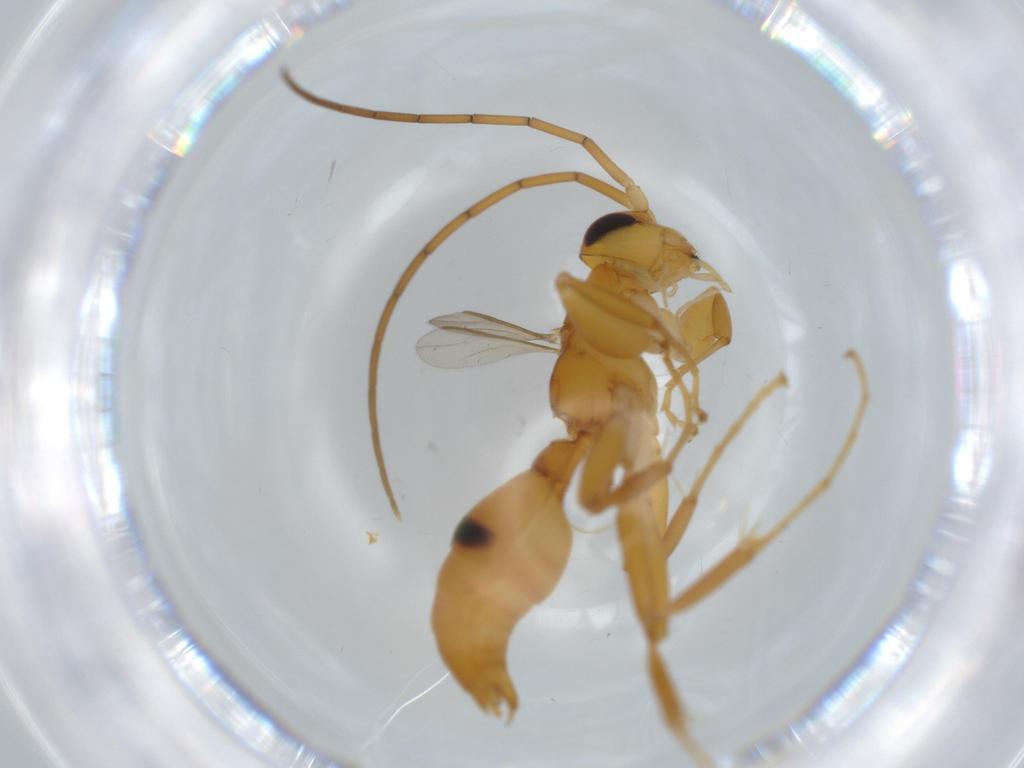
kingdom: Animalia
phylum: Arthropoda
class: Insecta
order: Hymenoptera
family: Rhopalosomatidae
